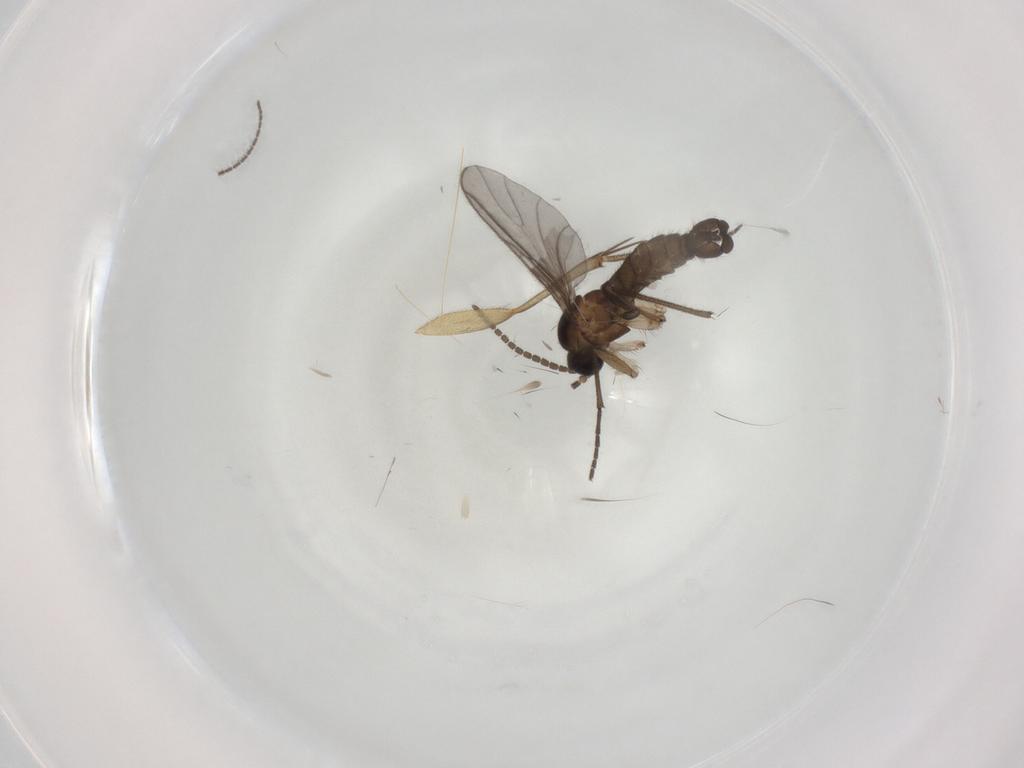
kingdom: Animalia
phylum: Arthropoda
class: Insecta
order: Diptera
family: Sciaridae
